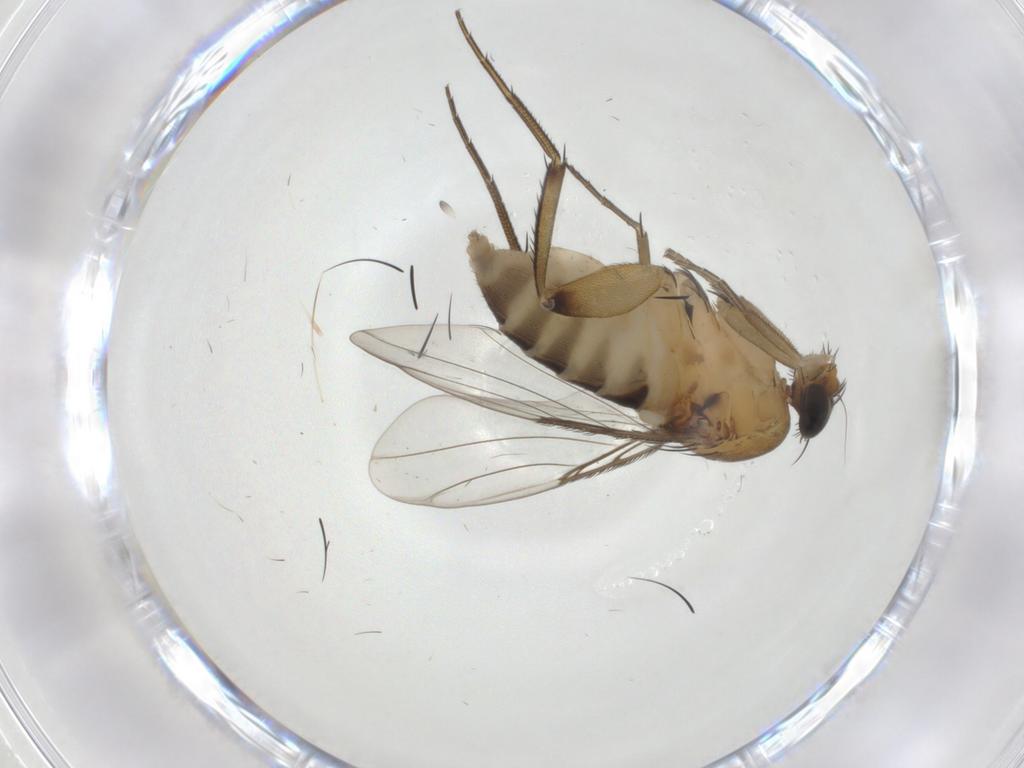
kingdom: Animalia
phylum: Arthropoda
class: Insecta
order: Diptera
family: Phoridae
